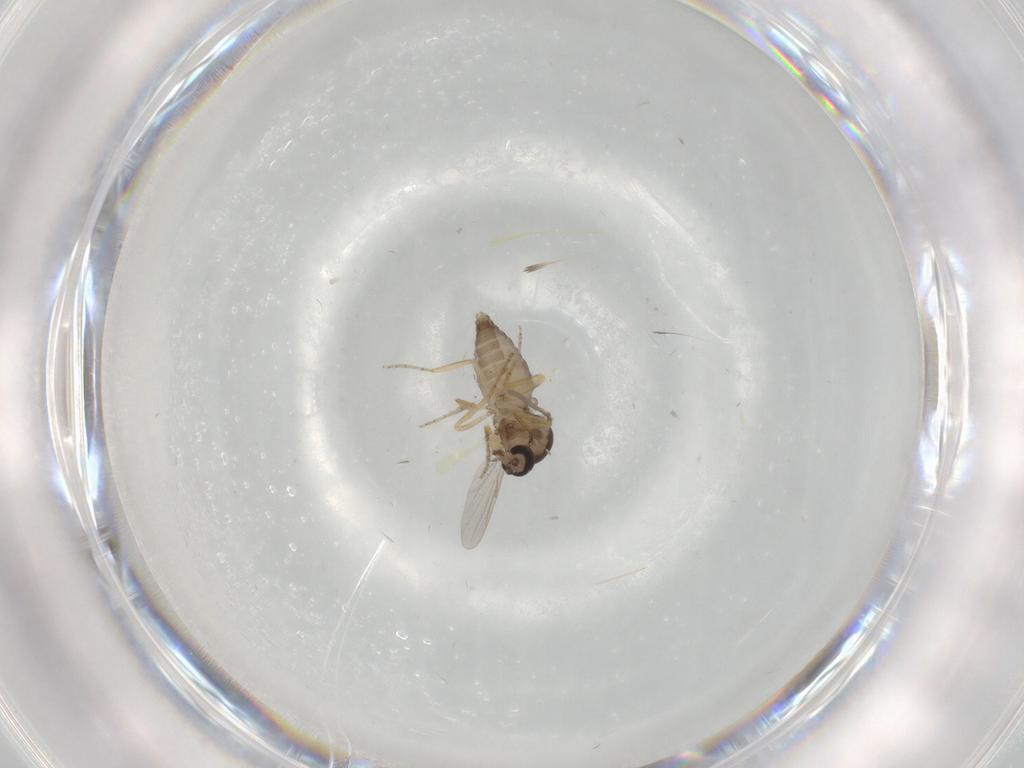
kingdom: Animalia
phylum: Arthropoda
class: Insecta
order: Diptera
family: Ceratopogonidae
